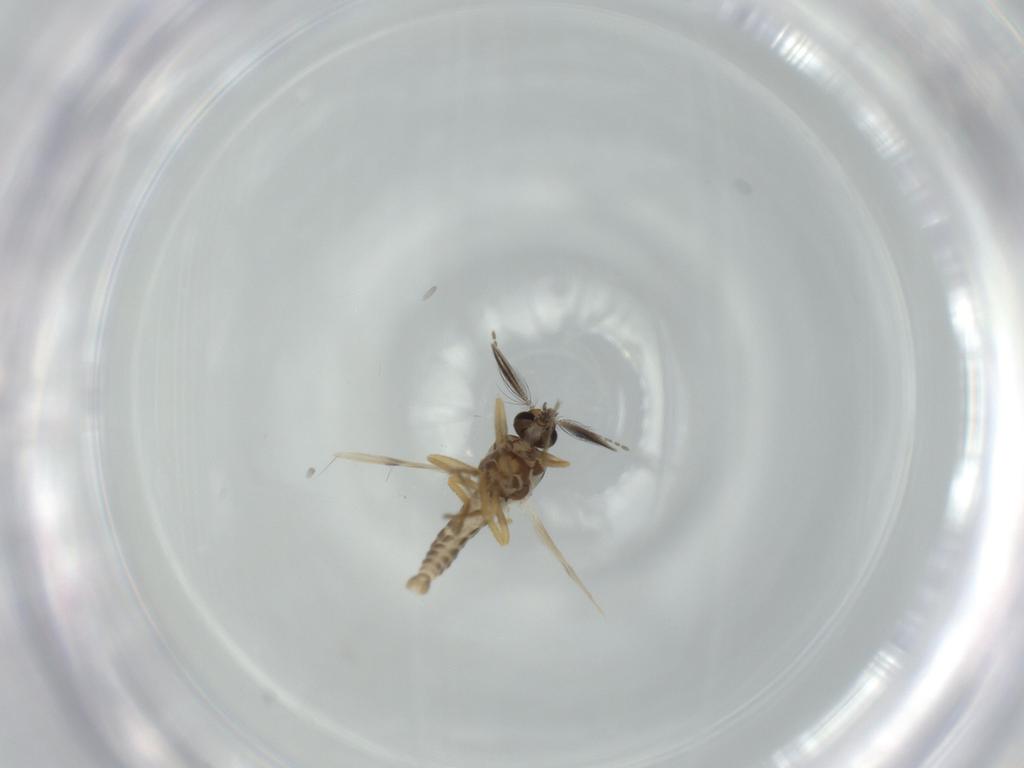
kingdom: Animalia
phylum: Arthropoda
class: Insecta
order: Diptera
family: Ceratopogonidae
